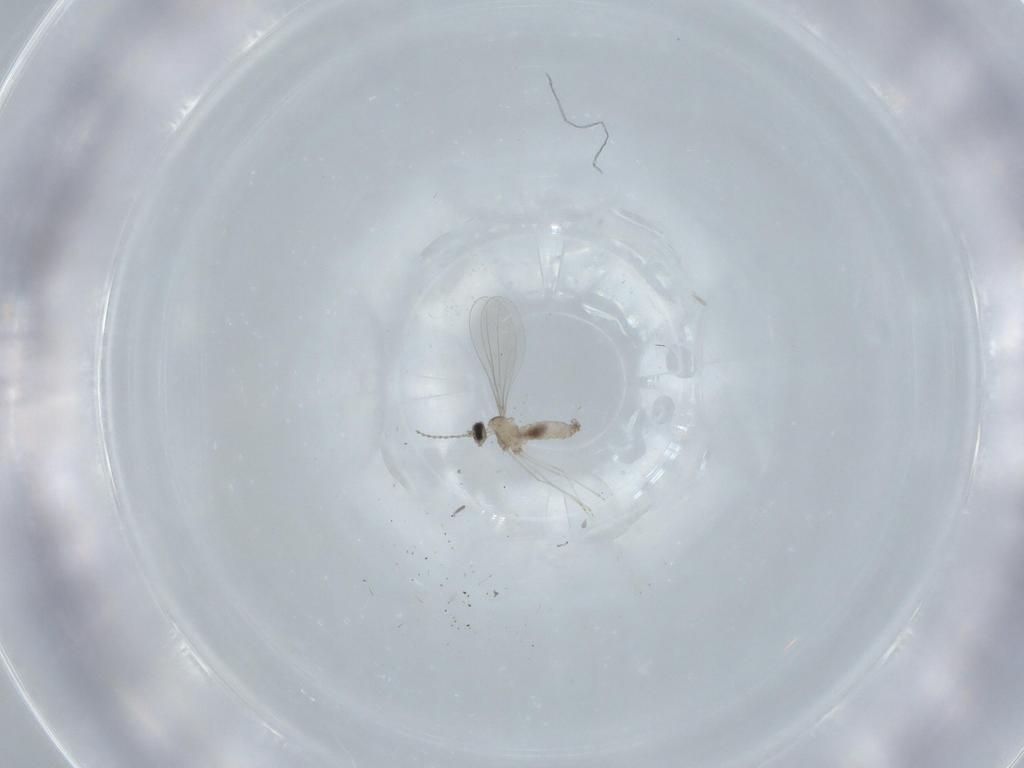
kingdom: Animalia
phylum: Arthropoda
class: Insecta
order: Diptera
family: Cecidomyiidae
